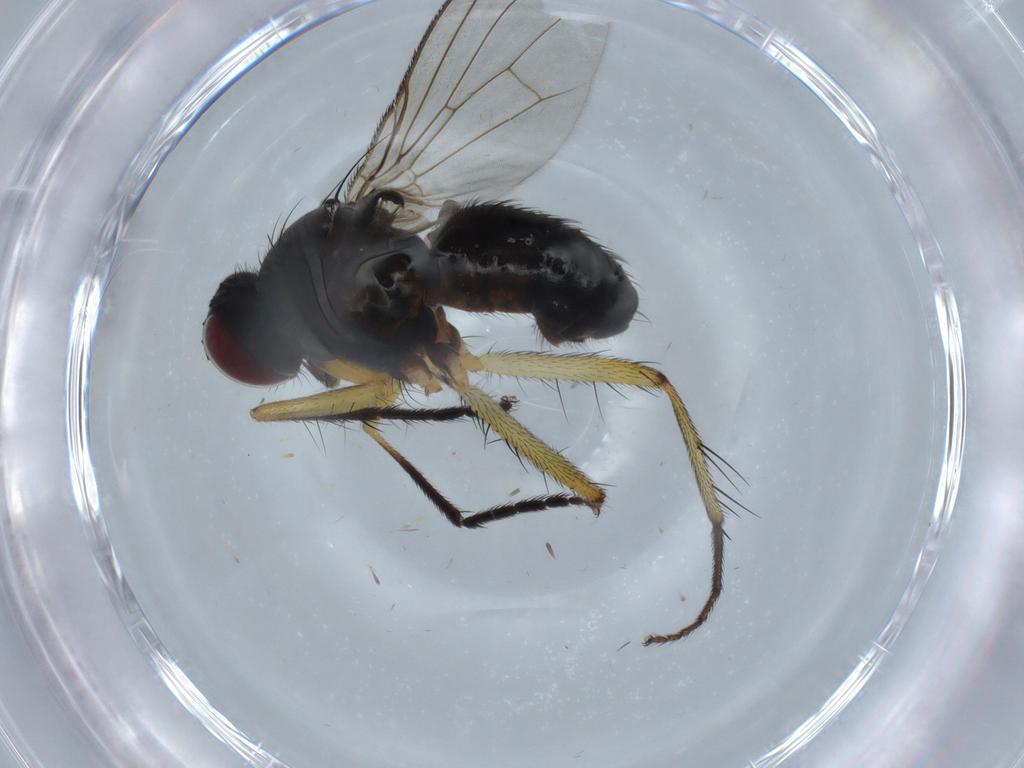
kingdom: Animalia
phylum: Arthropoda
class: Insecta
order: Diptera
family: Muscidae
